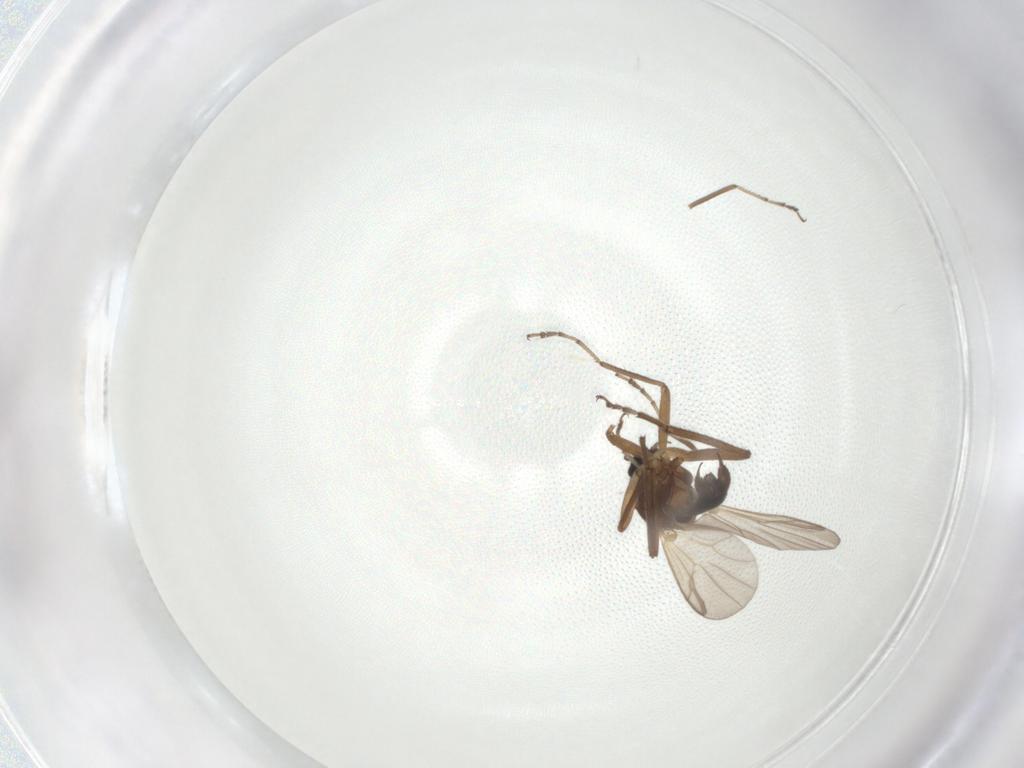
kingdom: Animalia
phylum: Arthropoda
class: Insecta
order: Diptera
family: Ceratopogonidae
